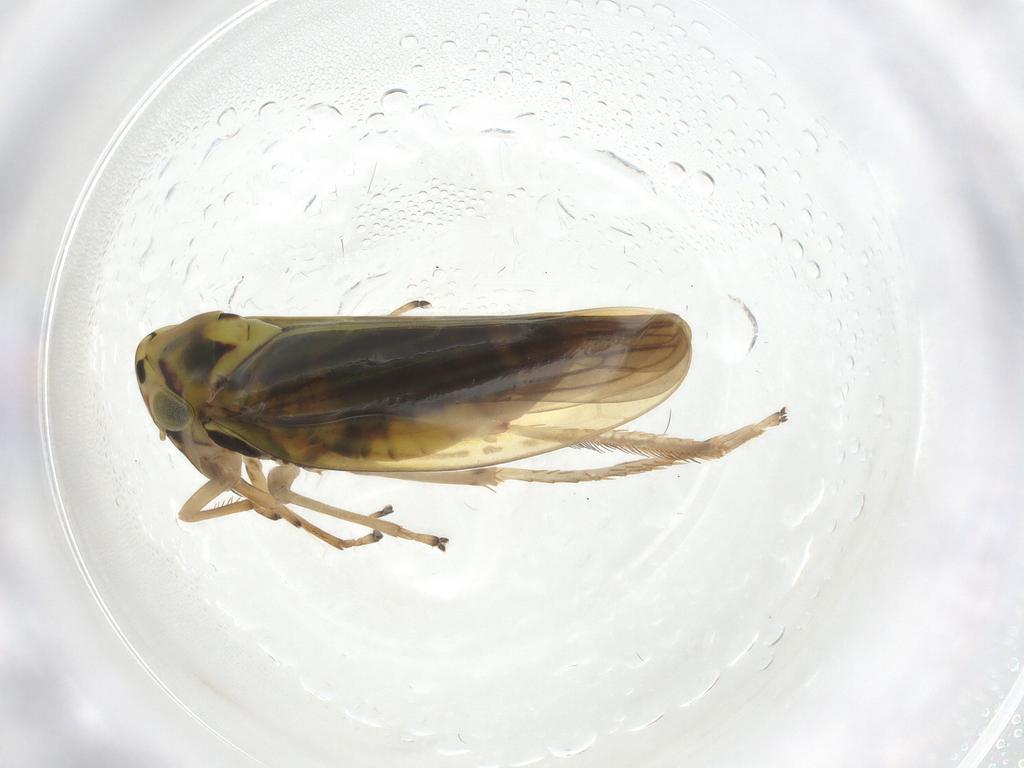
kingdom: Animalia
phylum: Arthropoda
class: Insecta
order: Hemiptera
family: Cicadellidae
